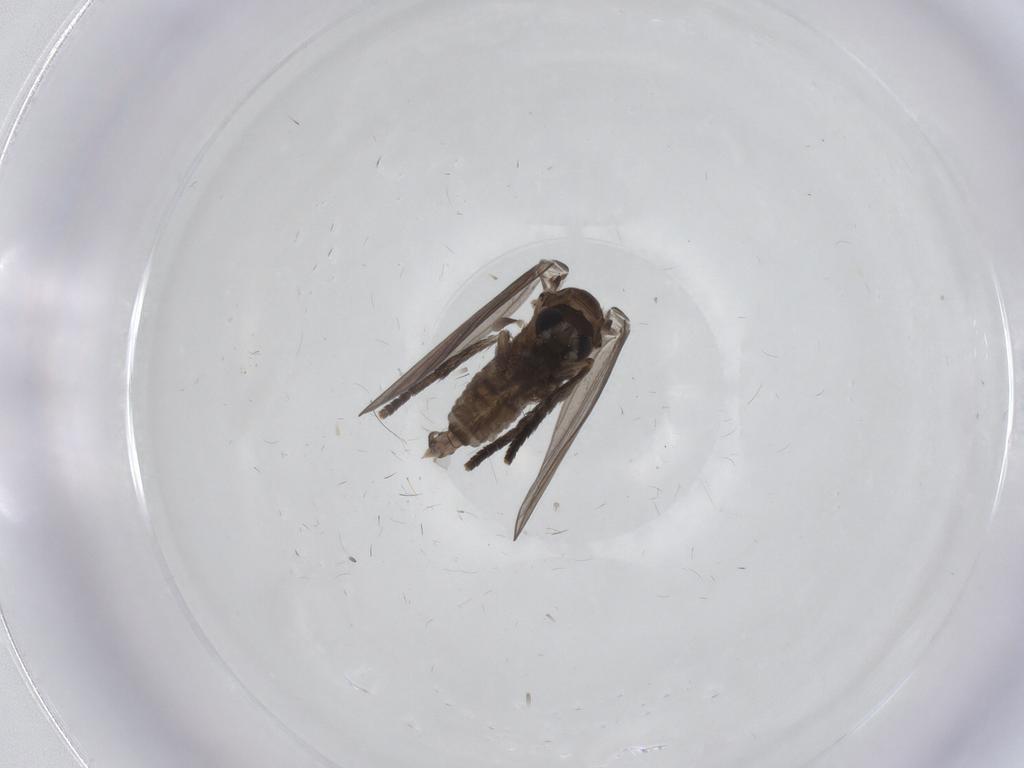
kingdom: Animalia
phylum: Arthropoda
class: Insecta
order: Diptera
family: Psychodidae
